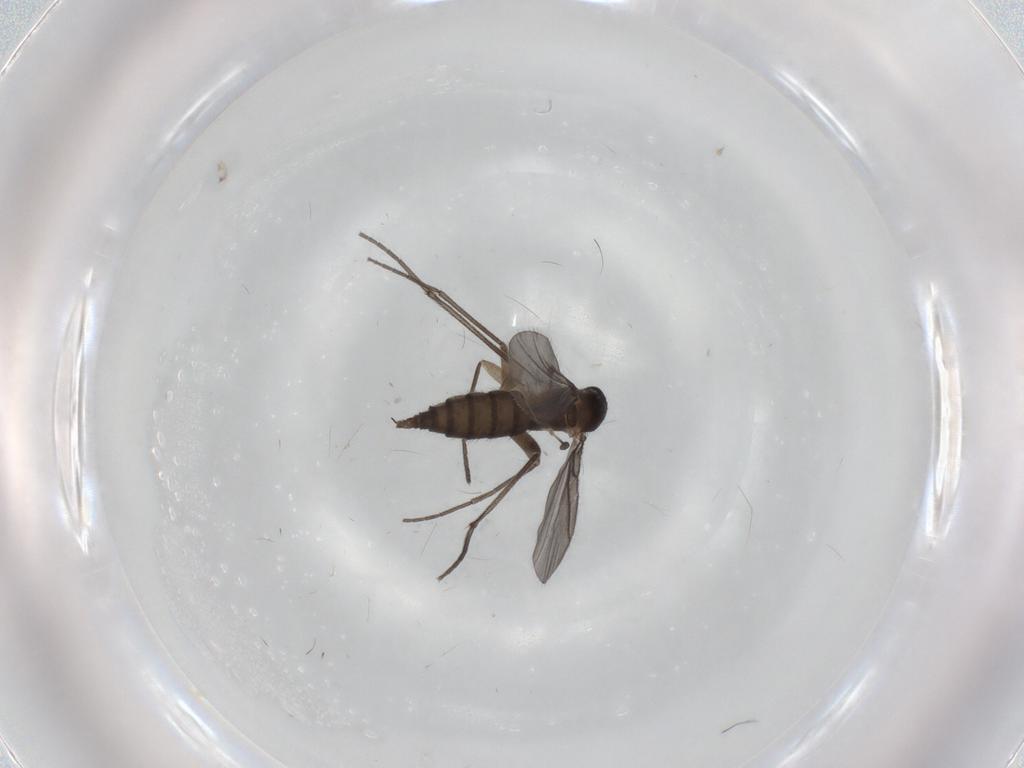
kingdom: Animalia
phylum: Arthropoda
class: Insecta
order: Diptera
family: Sciaridae
